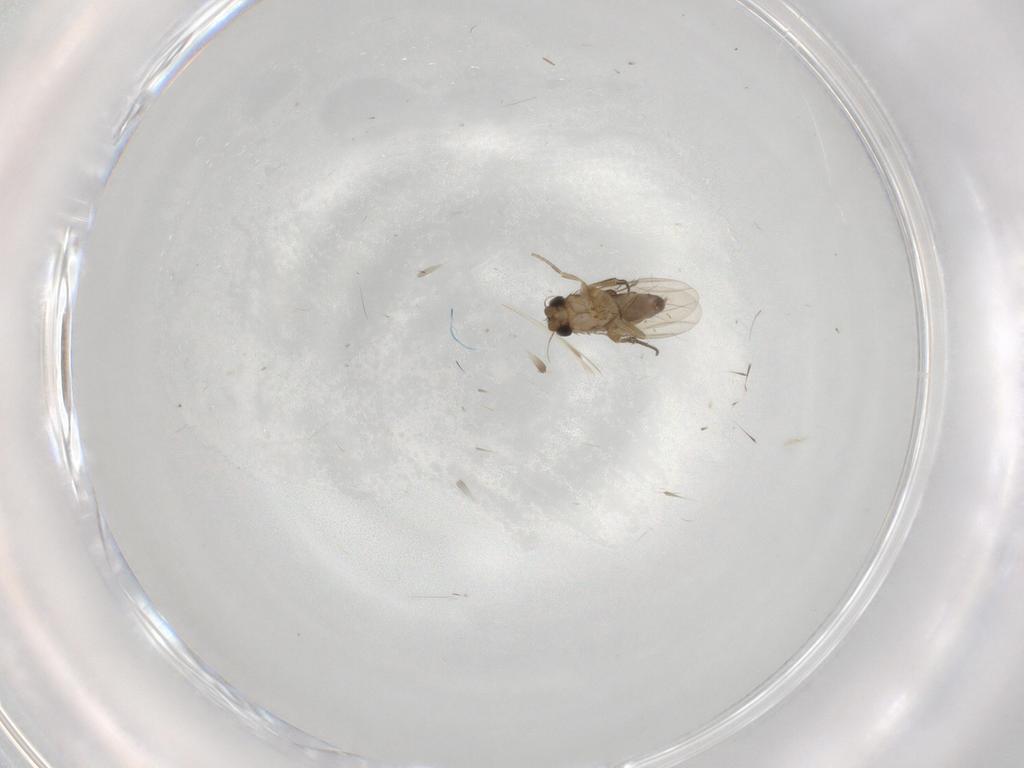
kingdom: Animalia
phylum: Arthropoda
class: Insecta
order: Diptera
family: Phoridae
